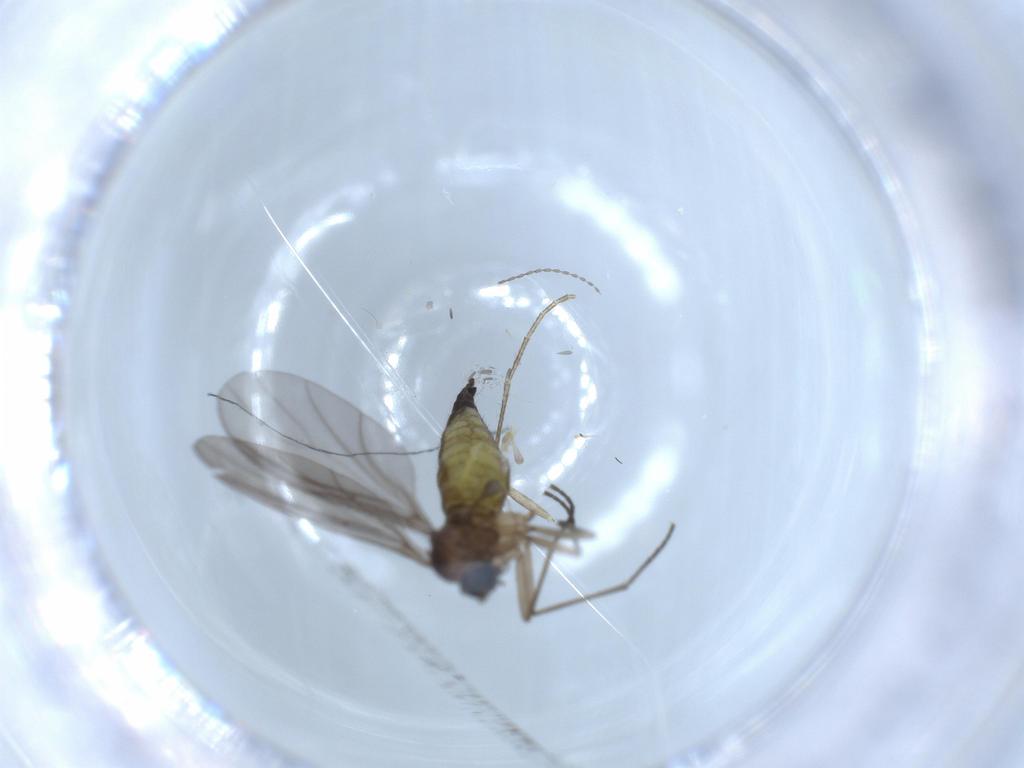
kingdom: Animalia
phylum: Arthropoda
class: Insecta
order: Diptera
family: Sciaridae
